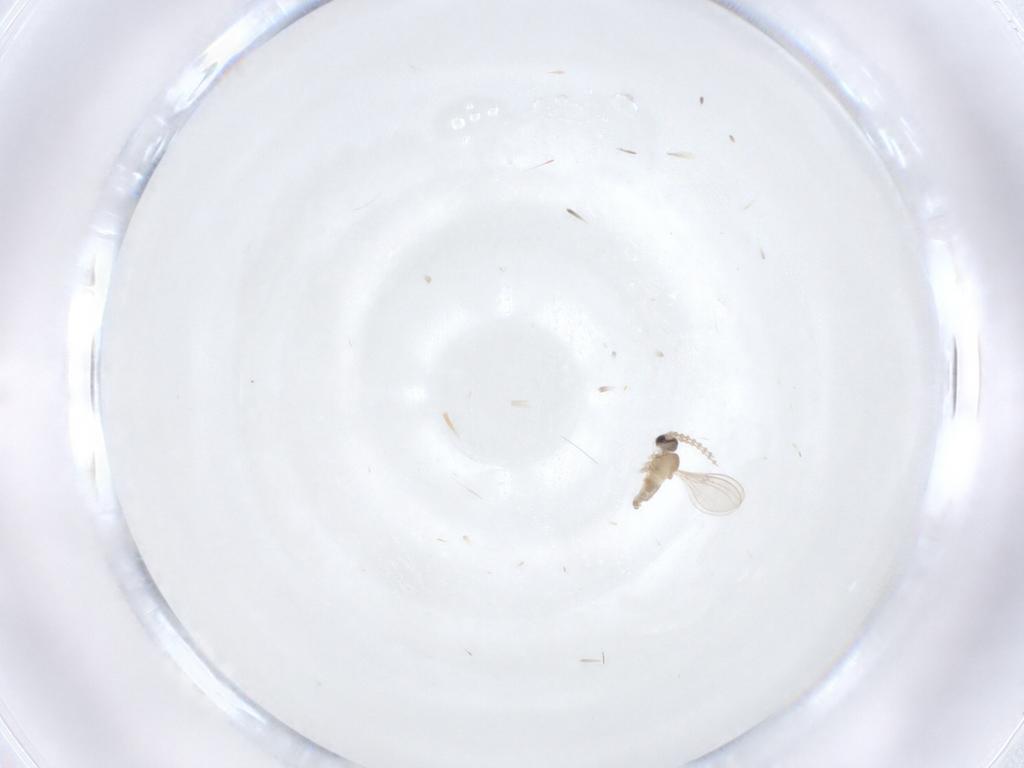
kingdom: Animalia
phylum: Arthropoda
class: Insecta
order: Diptera
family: Cecidomyiidae
